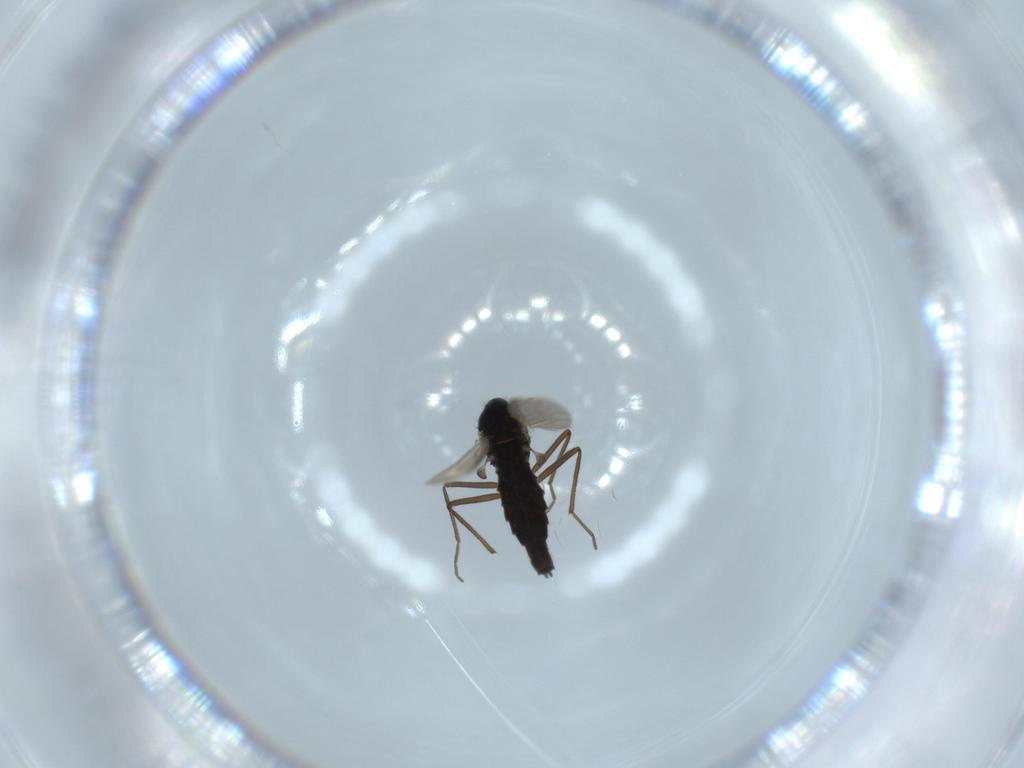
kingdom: Animalia
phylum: Arthropoda
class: Insecta
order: Diptera
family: Chironomidae
